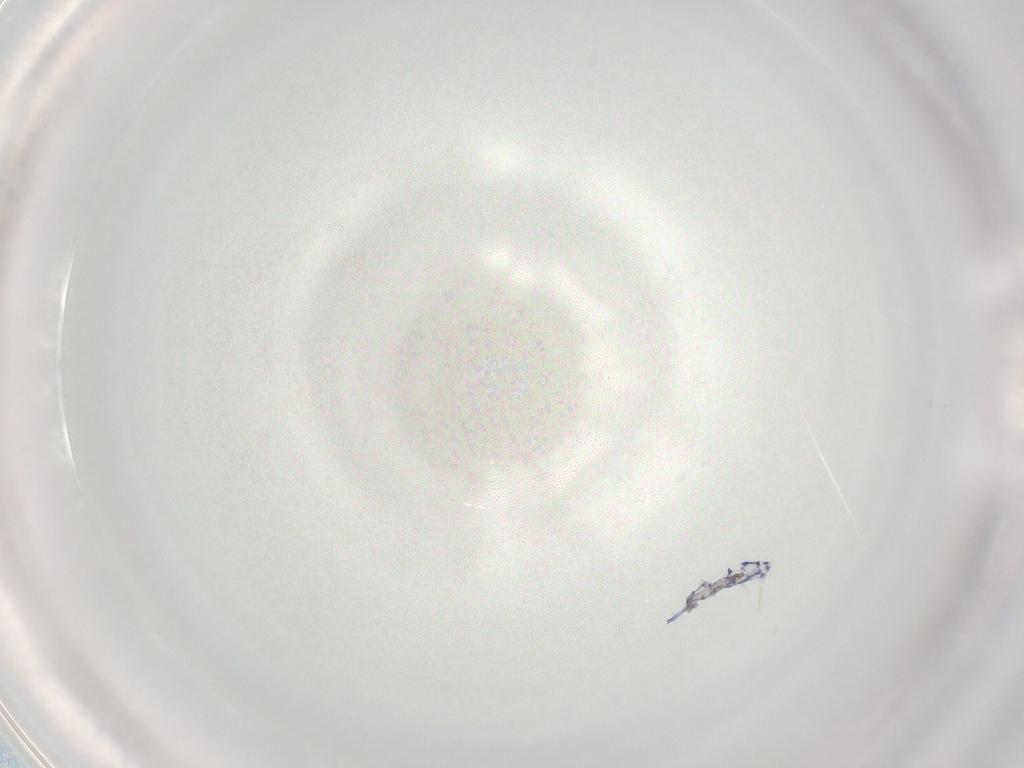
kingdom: Animalia
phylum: Arthropoda
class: Collembola
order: Entomobryomorpha
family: Entomobryidae
